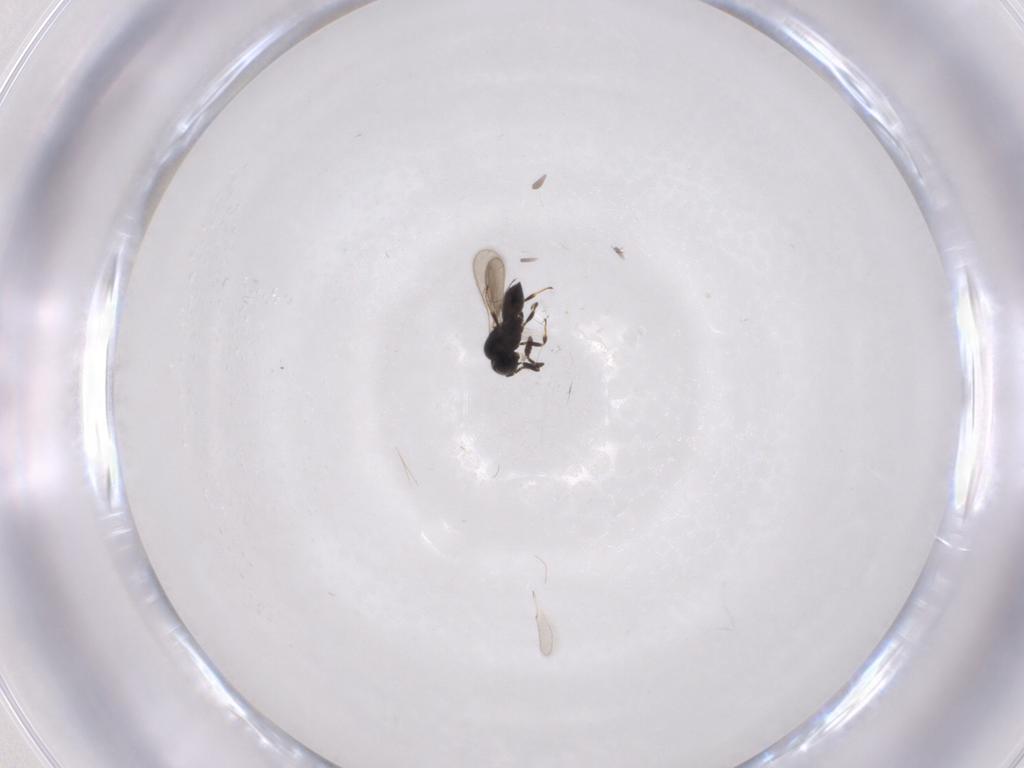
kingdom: Animalia
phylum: Arthropoda
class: Insecta
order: Hymenoptera
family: Scelionidae
